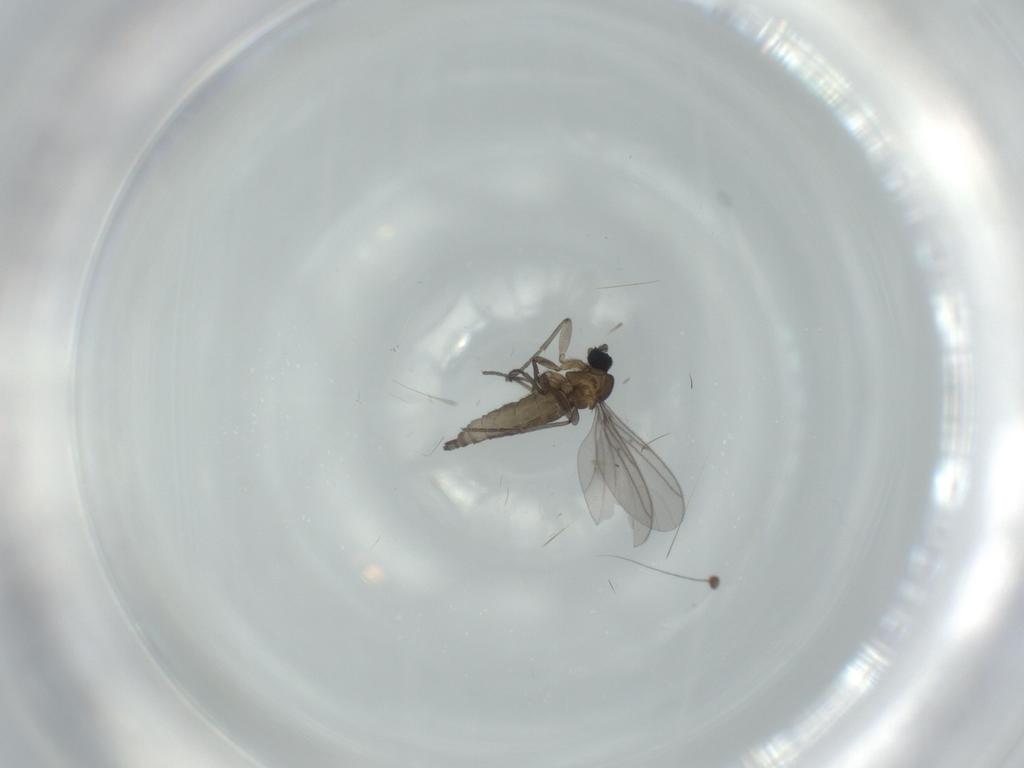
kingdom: Animalia
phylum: Arthropoda
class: Insecta
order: Diptera
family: Dolichopodidae
